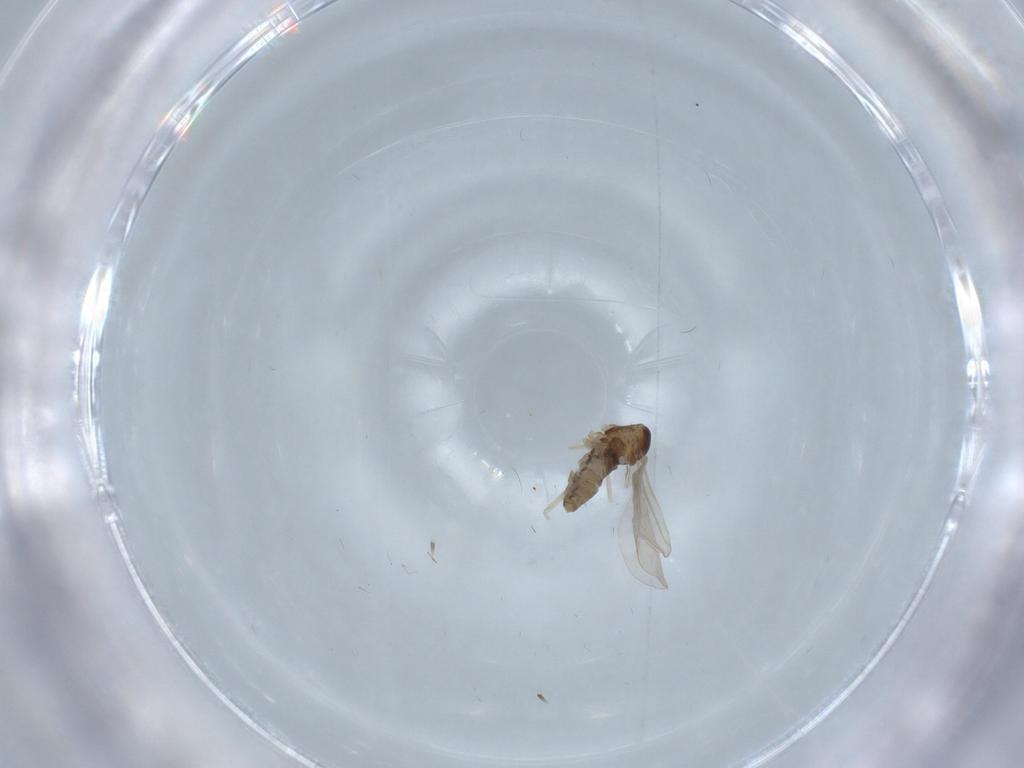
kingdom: Animalia
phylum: Arthropoda
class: Insecta
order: Diptera
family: Cecidomyiidae
